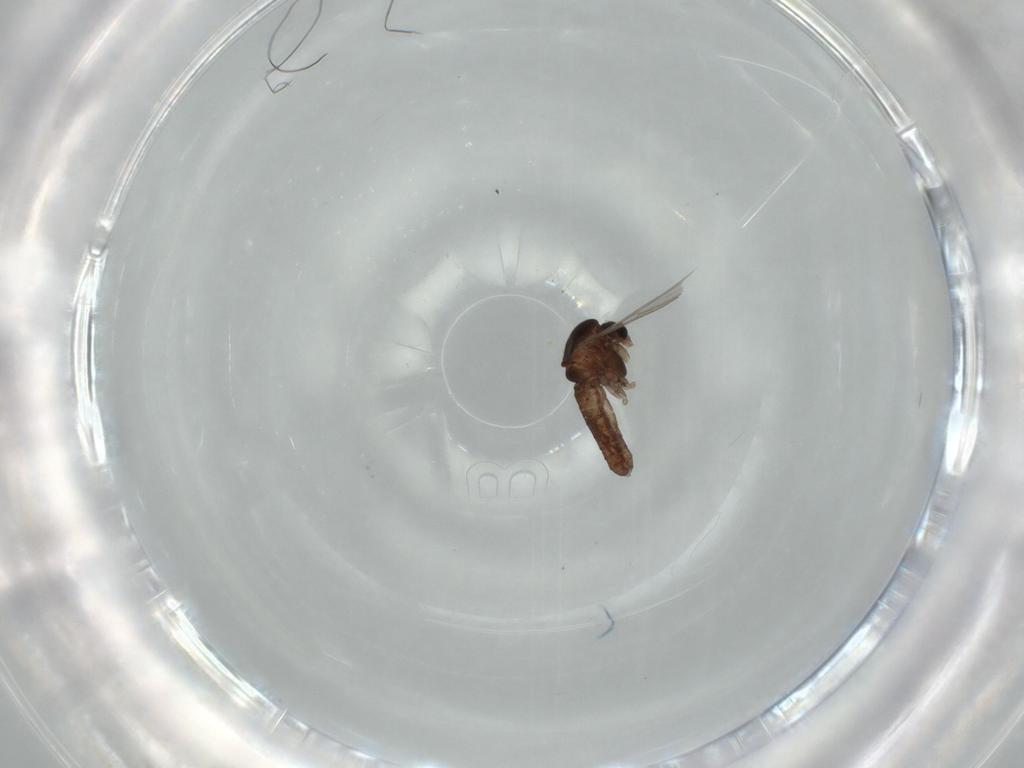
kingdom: Animalia
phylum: Arthropoda
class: Insecta
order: Diptera
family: Chironomidae
